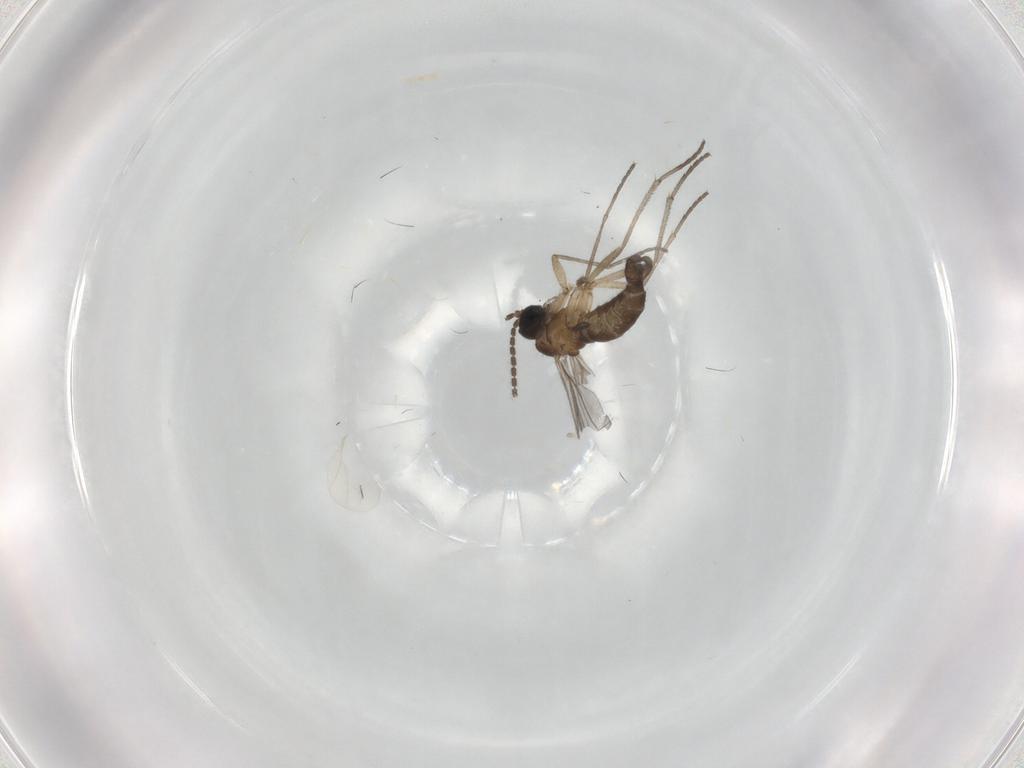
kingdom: Animalia
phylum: Arthropoda
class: Insecta
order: Diptera
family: Sciaridae
